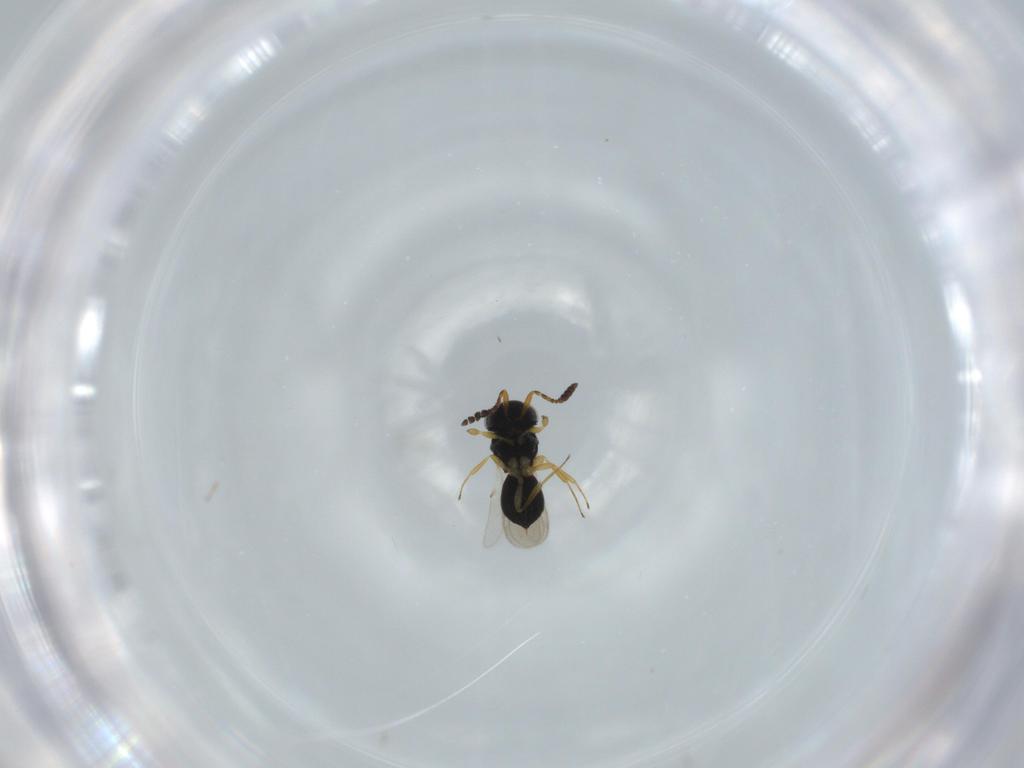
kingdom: Animalia
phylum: Arthropoda
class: Insecta
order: Hymenoptera
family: Scelionidae
